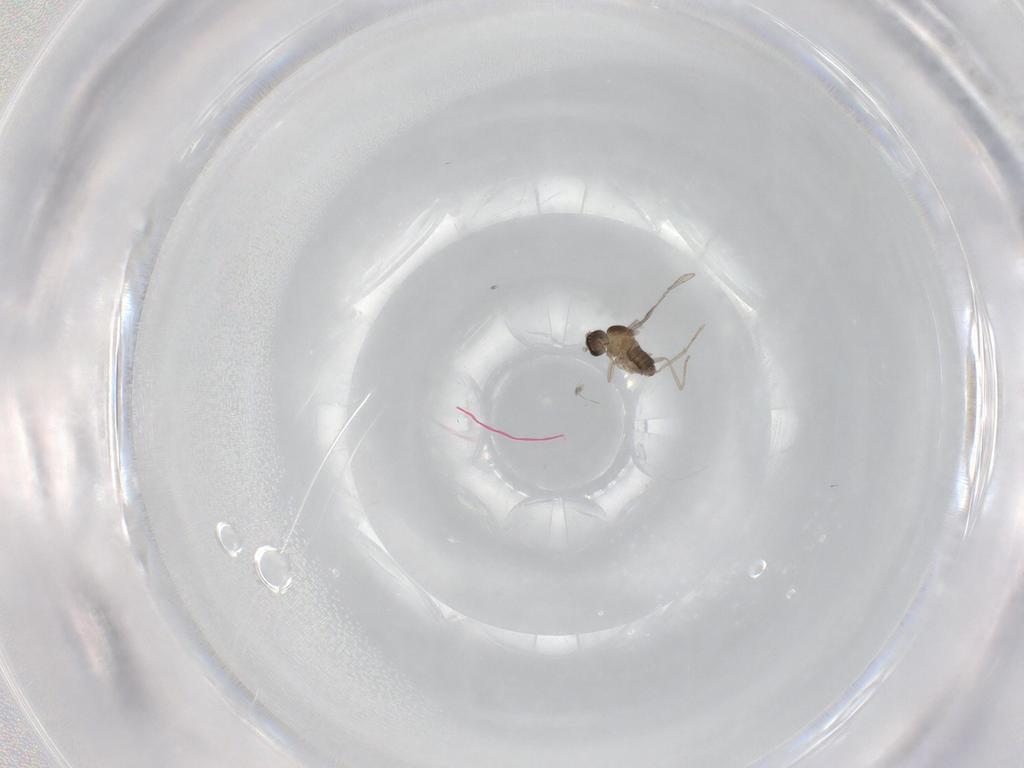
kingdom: Animalia
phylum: Arthropoda
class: Insecta
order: Diptera
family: Cecidomyiidae
